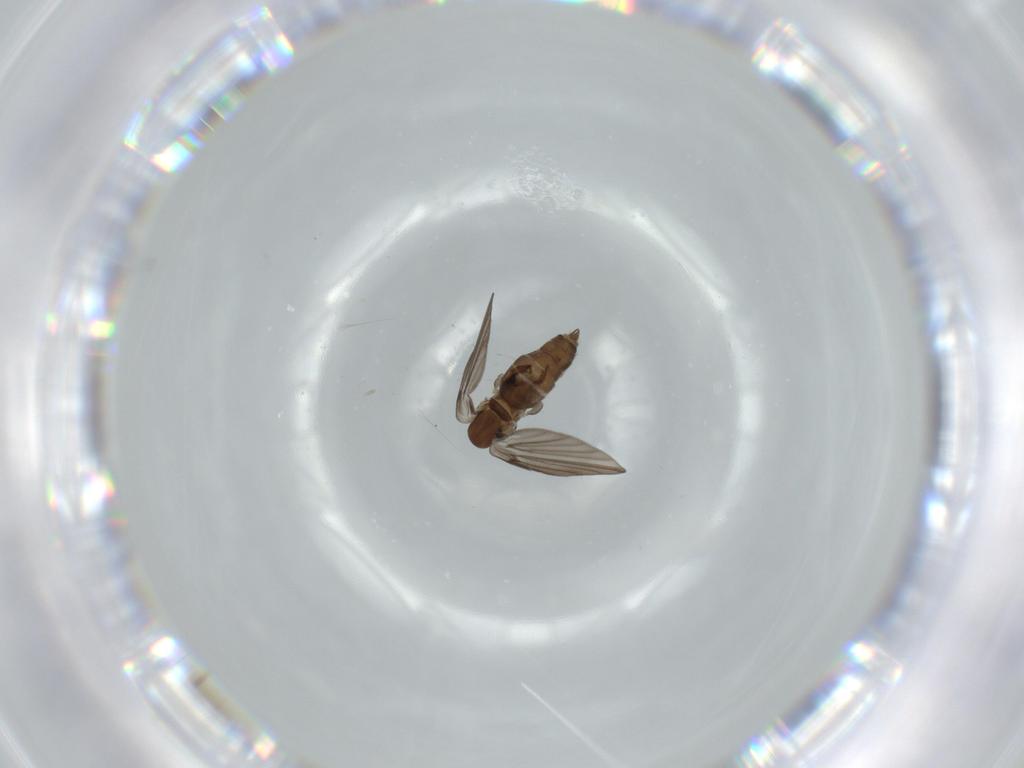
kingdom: Animalia
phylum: Arthropoda
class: Insecta
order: Diptera
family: Psychodidae
